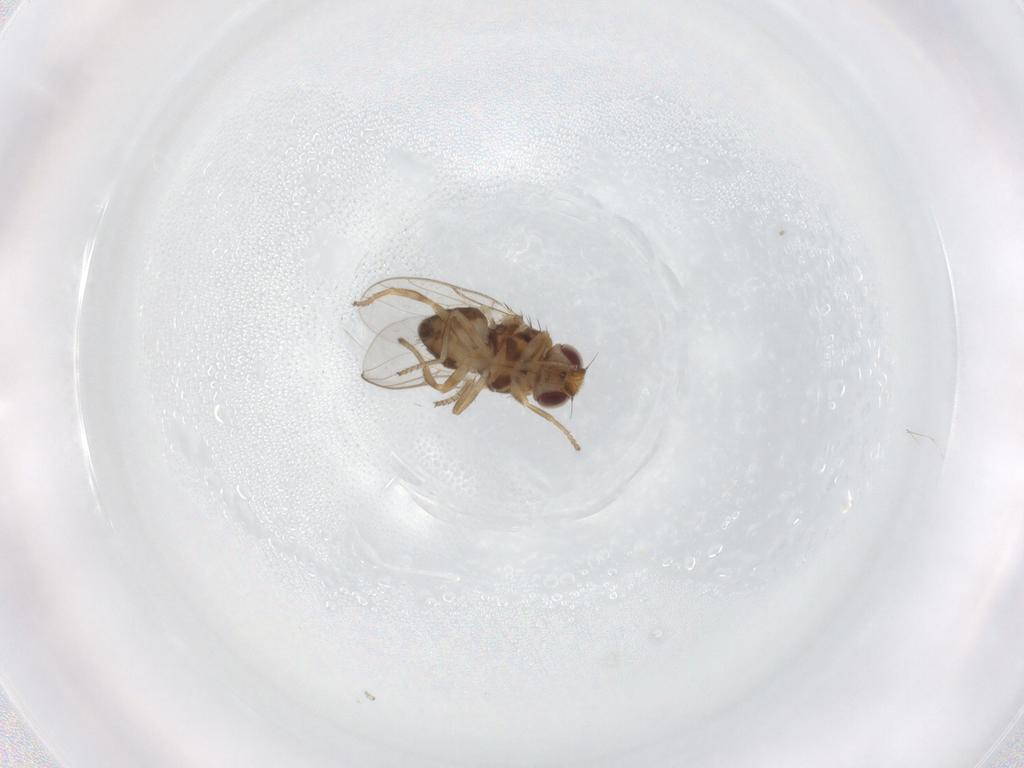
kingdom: Animalia
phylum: Arthropoda
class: Insecta
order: Diptera
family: Chloropidae
